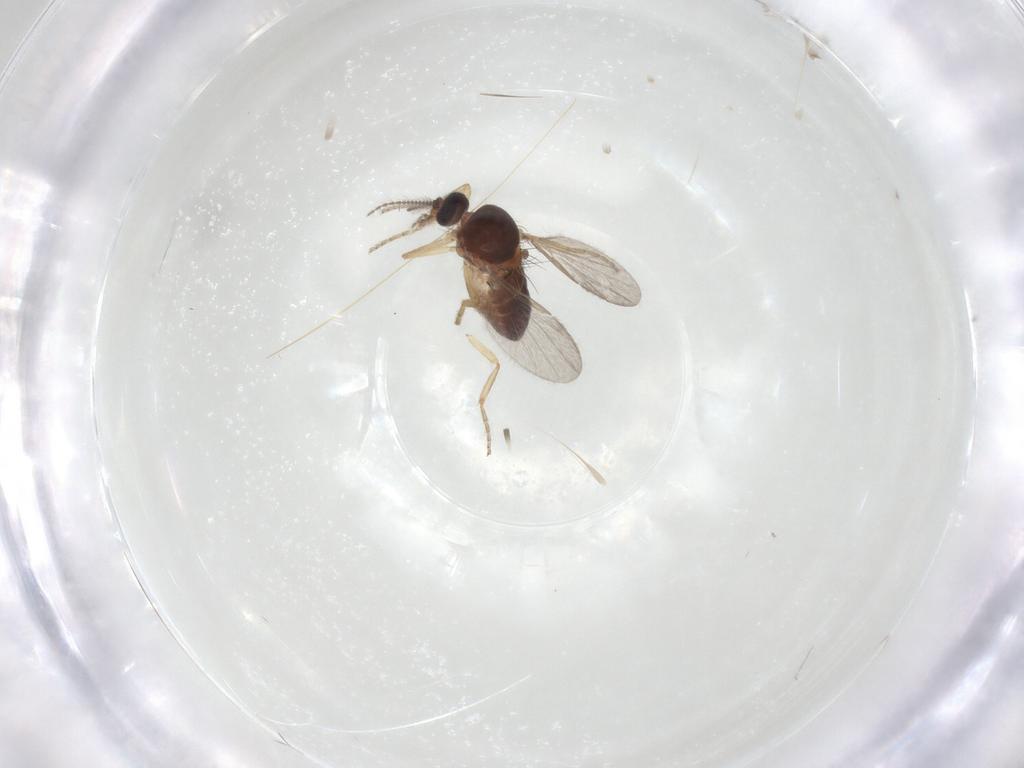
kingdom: Animalia
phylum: Arthropoda
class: Insecta
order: Diptera
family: Ceratopogonidae
